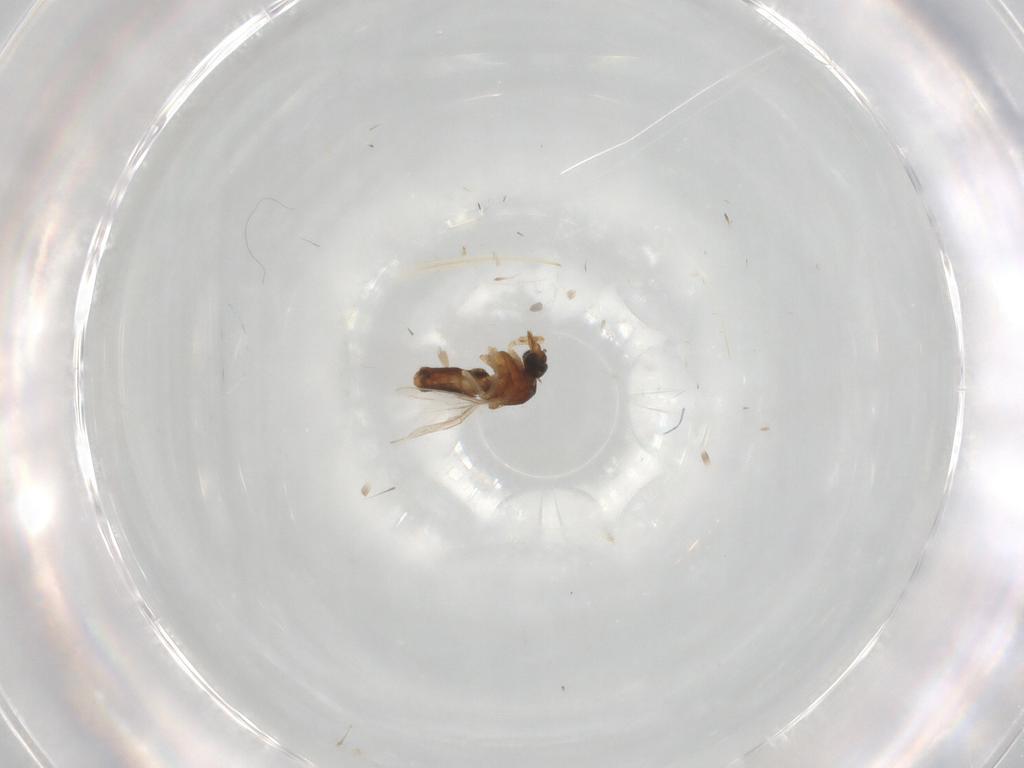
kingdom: Animalia
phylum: Arthropoda
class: Insecta
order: Diptera
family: Ceratopogonidae
